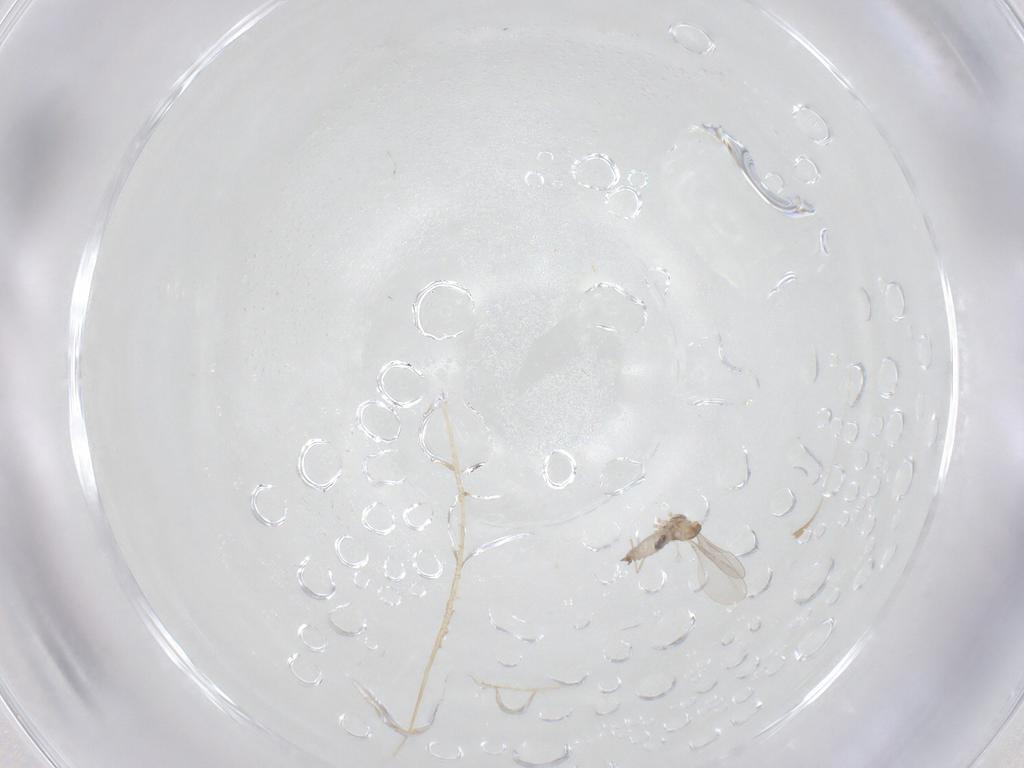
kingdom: Animalia
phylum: Arthropoda
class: Insecta
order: Diptera
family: Cecidomyiidae
